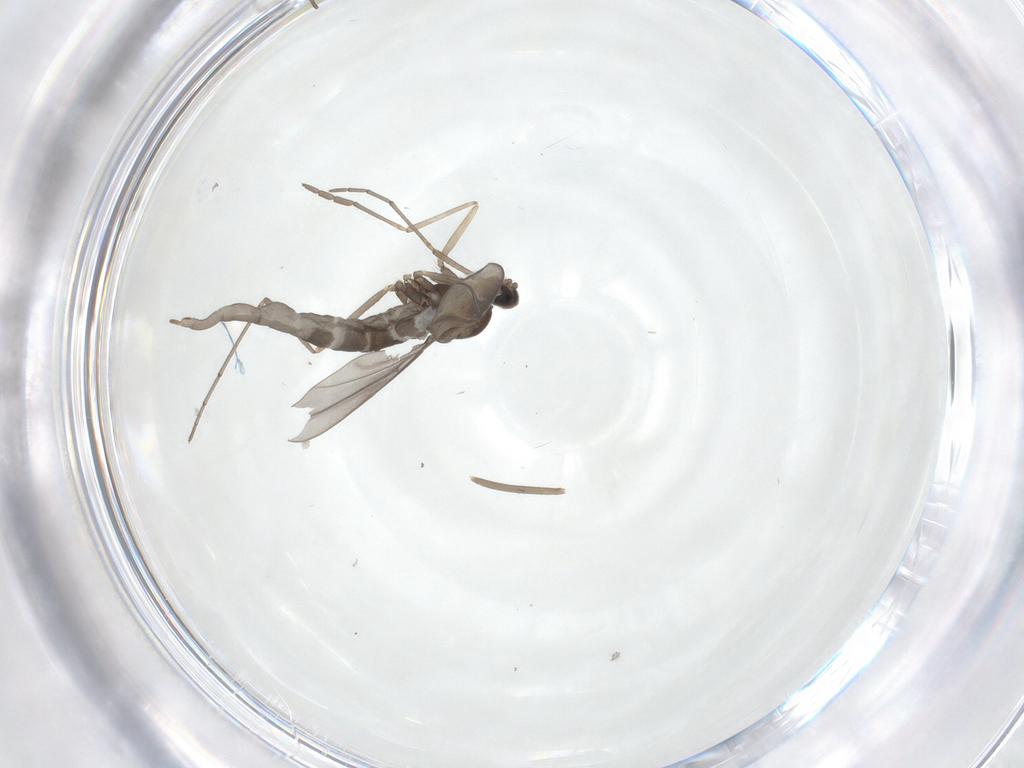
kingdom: Animalia
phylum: Arthropoda
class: Insecta
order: Diptera
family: Cecidomyiidae
